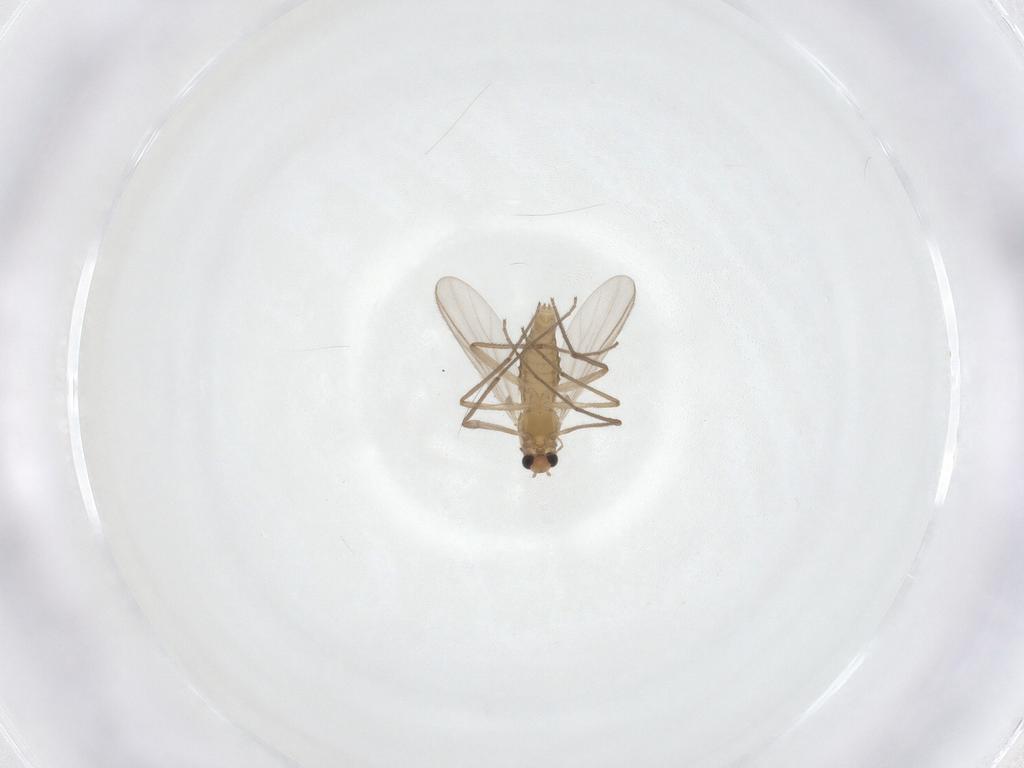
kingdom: Animalia
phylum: Arthropoda
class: Insecta
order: Diptera
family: Chironomidae
